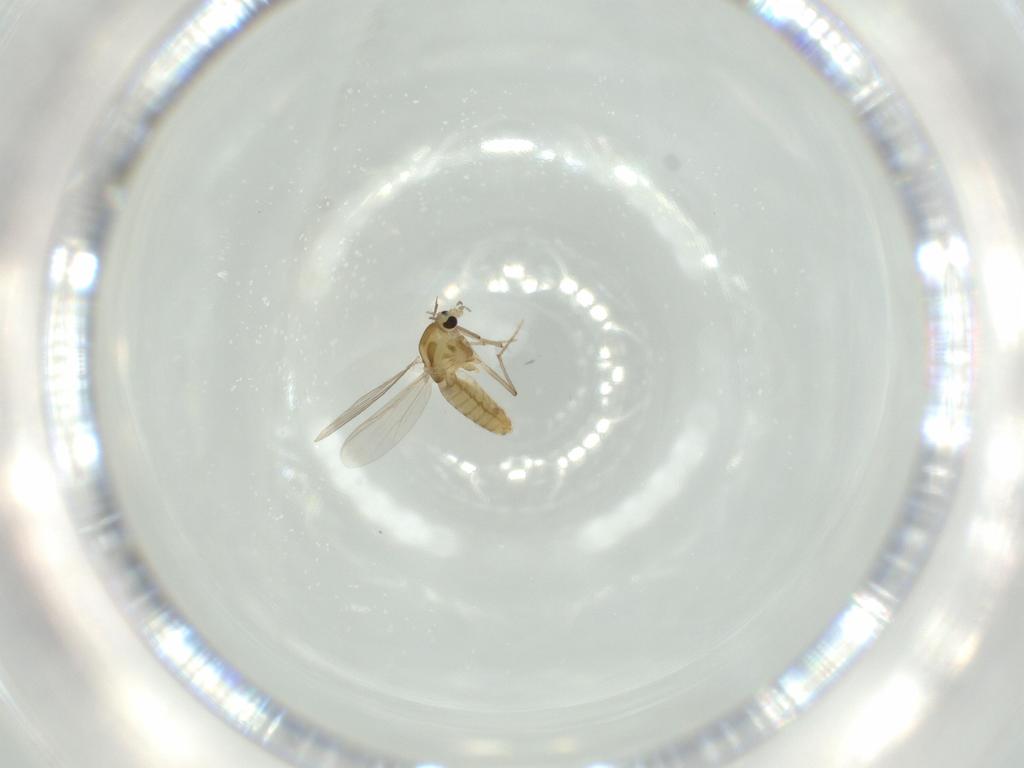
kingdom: Animalia
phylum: Arthropoda
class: Insecta
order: Diptera
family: Chironomidae
